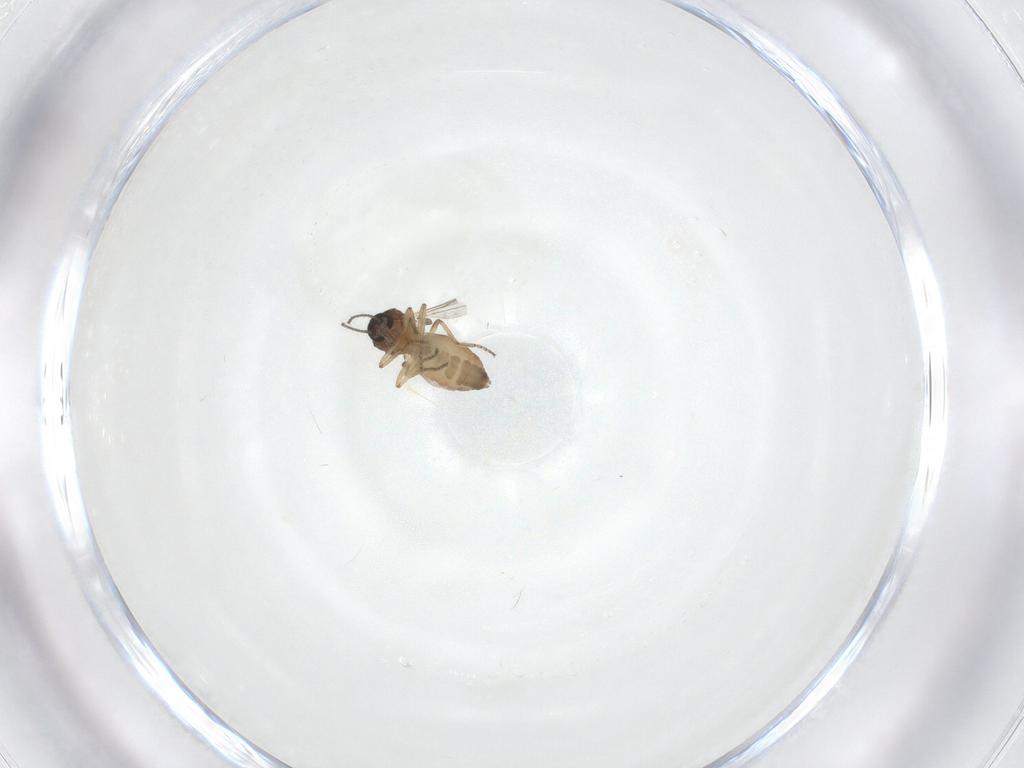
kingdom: Animalia
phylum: Arthropoda
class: Insecta
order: Diptera
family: Ceratopogonidae
